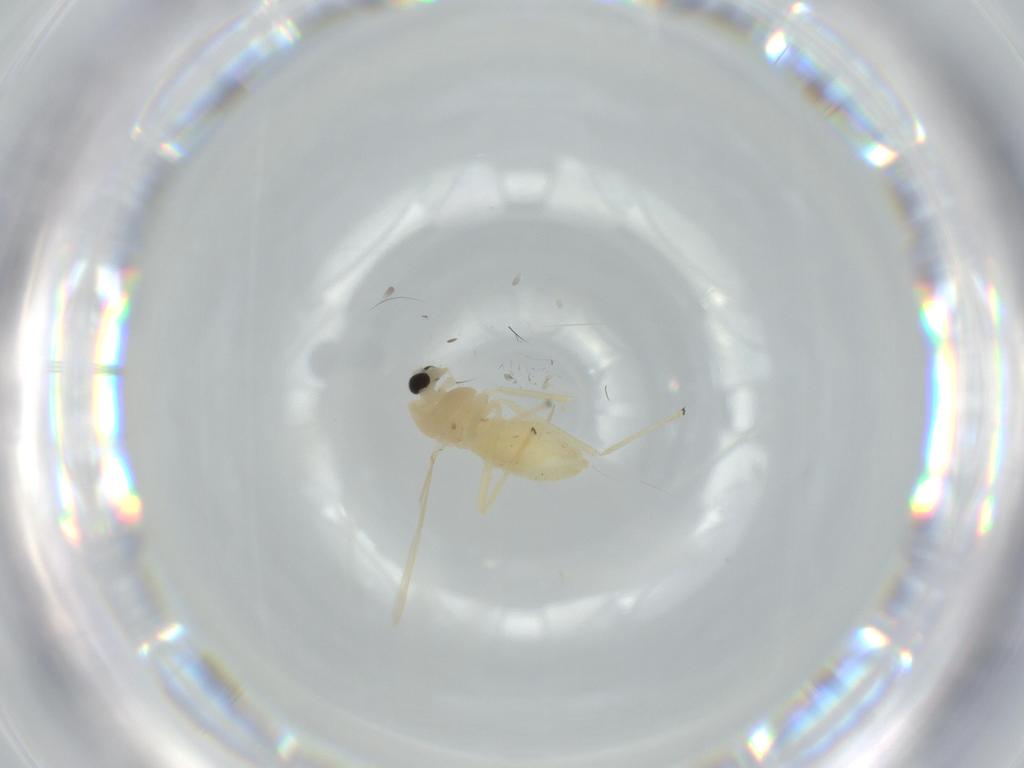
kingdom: Animalia
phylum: Arthropoda
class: Insecta
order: Diptera
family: Chironomidae
